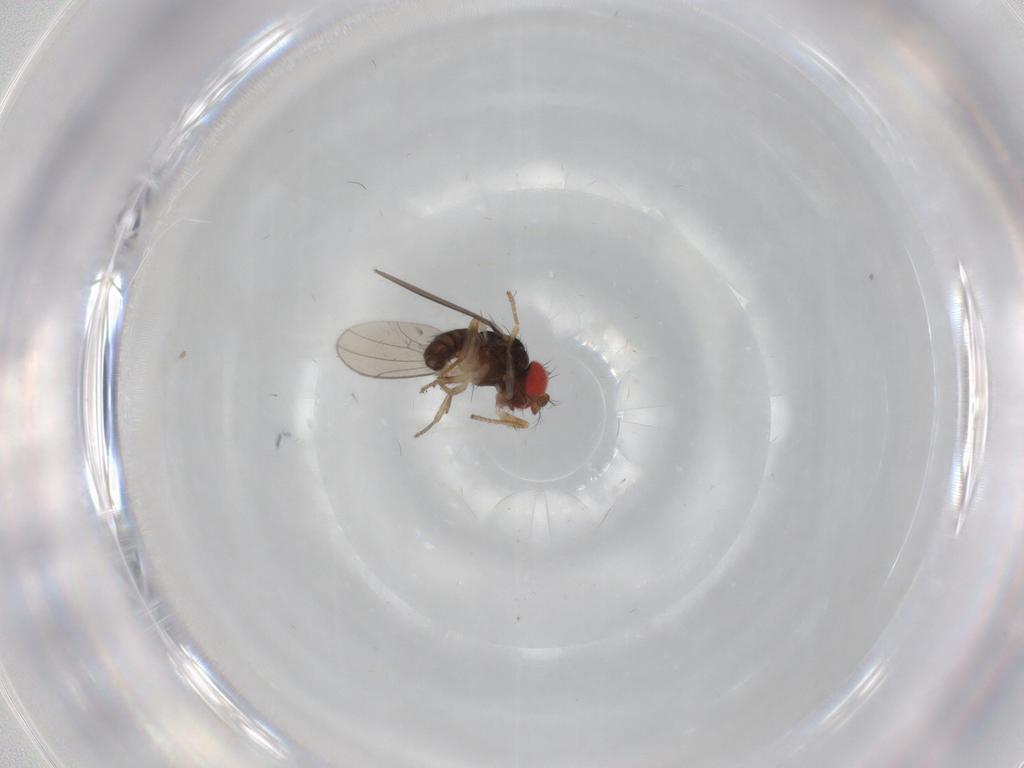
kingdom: Animalia
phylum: Arthropoda
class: Insecta
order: Diptera
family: Drosophilidae
